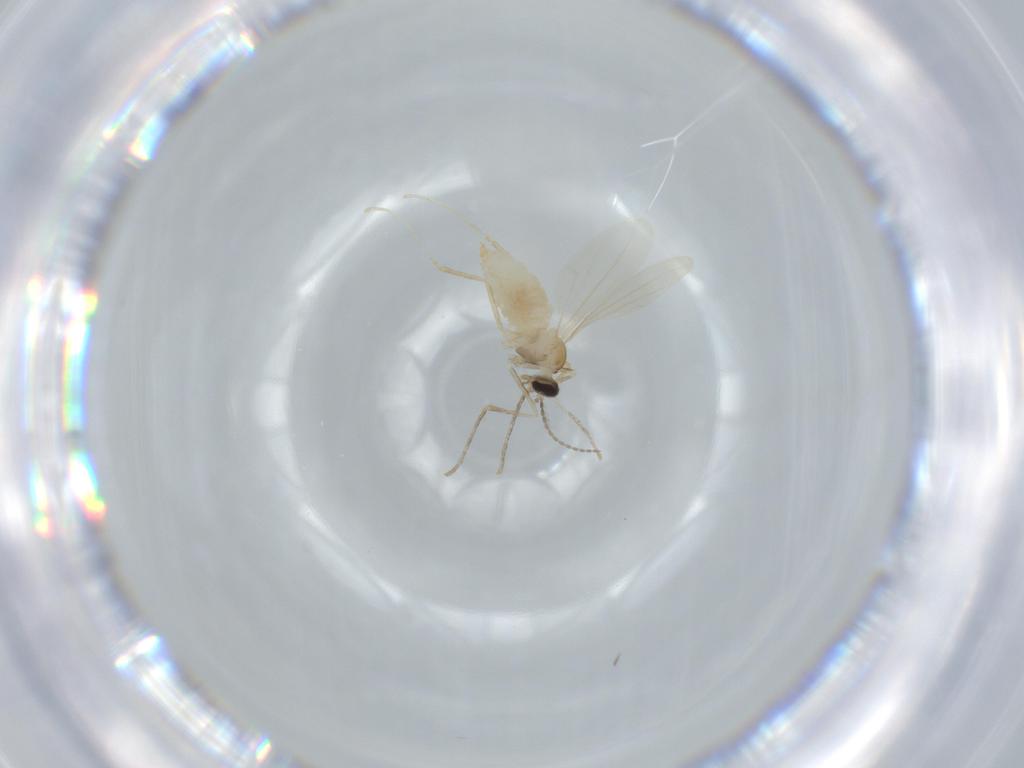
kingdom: Animalia
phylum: Arthropoda
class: Insecta
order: Diptera
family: Cecidomyiidae
